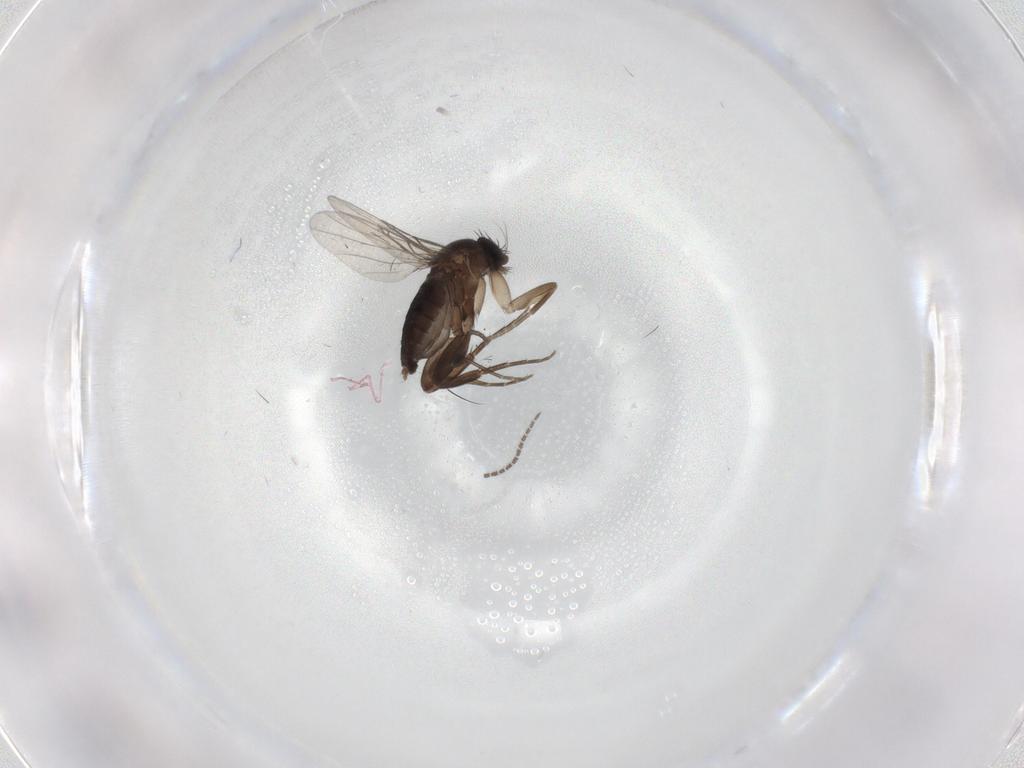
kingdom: Animalia
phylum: Arthropoda
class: Insecta
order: Diptera
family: Phoridae
